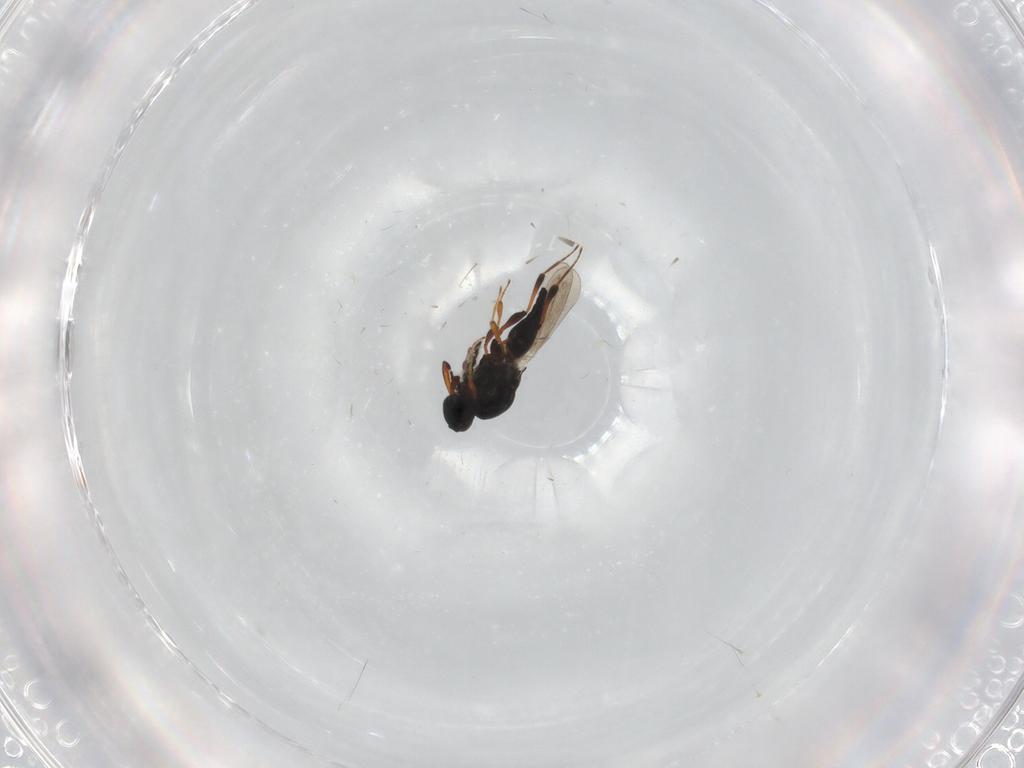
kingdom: Animalia
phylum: Arthropoda
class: Insecta
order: Hymenoptera
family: Platygastridae
